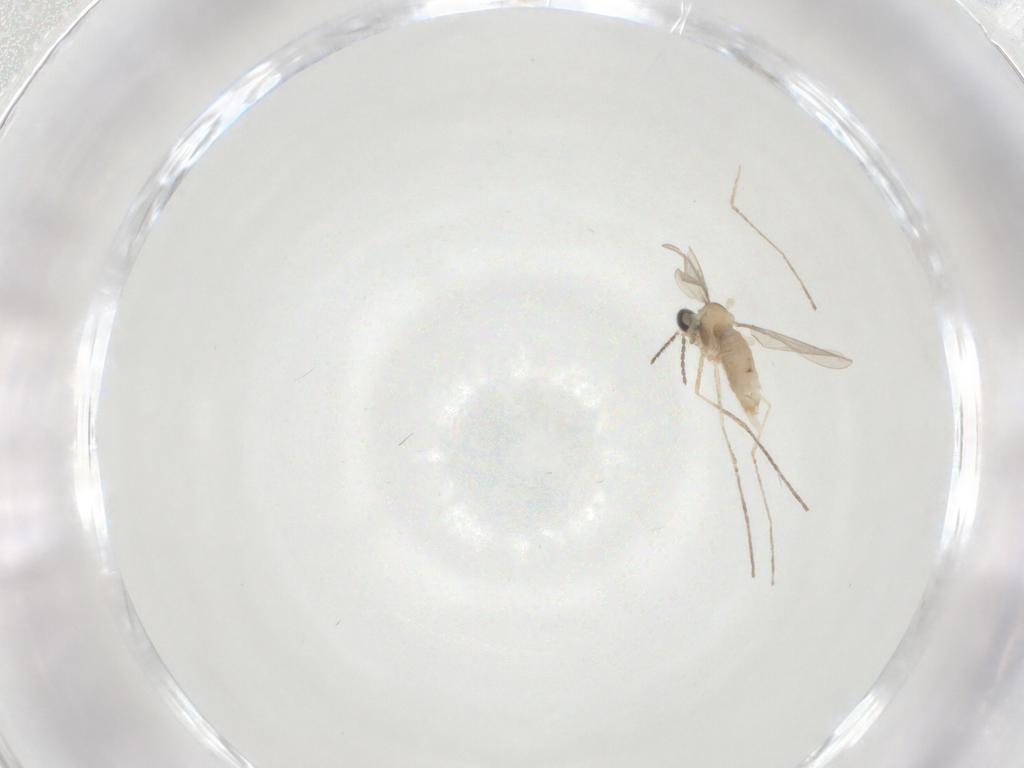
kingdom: Animalia
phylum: Arthropoda
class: Insecta
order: Diptera
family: Cecidomyiidae
